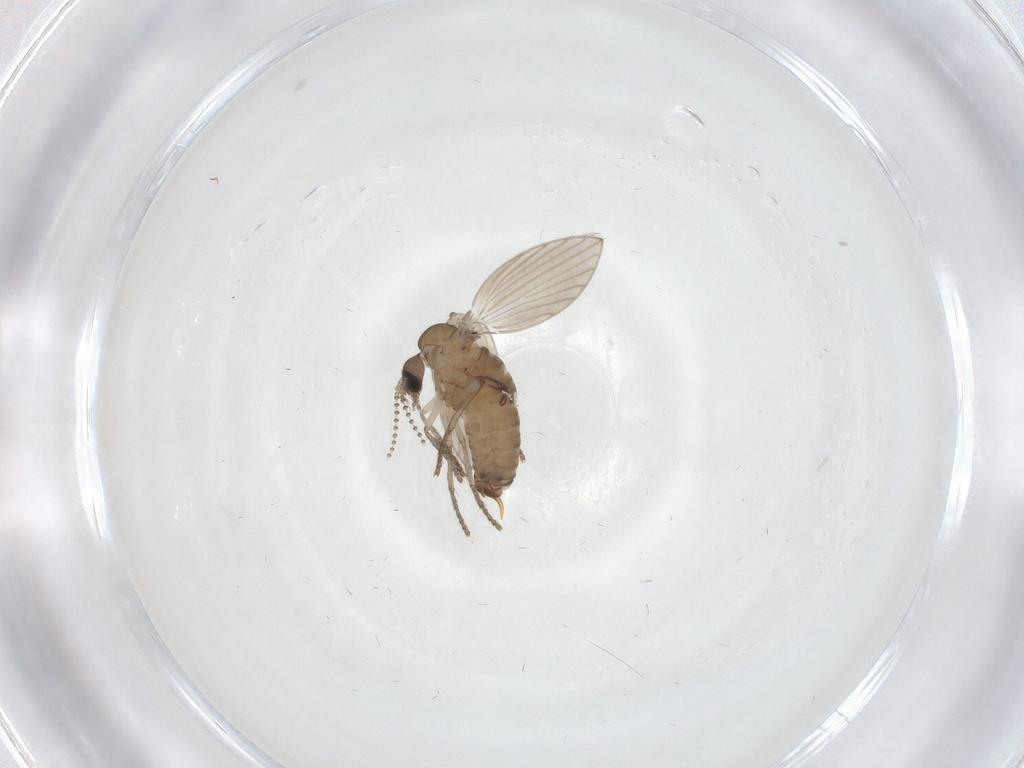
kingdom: Animalia
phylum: Arthropoda
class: Insecta
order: Diptera
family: Psychodidae
